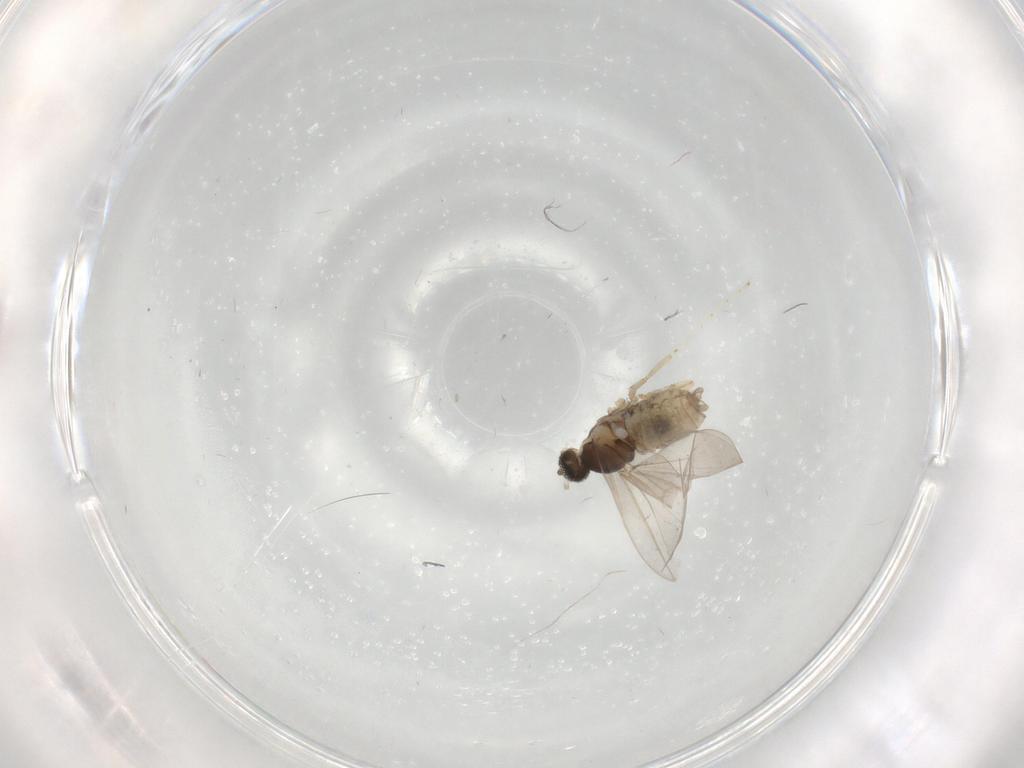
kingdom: Animalia
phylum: Arthropoda
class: Insecta
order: Diptera
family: Cecidomyiidae
